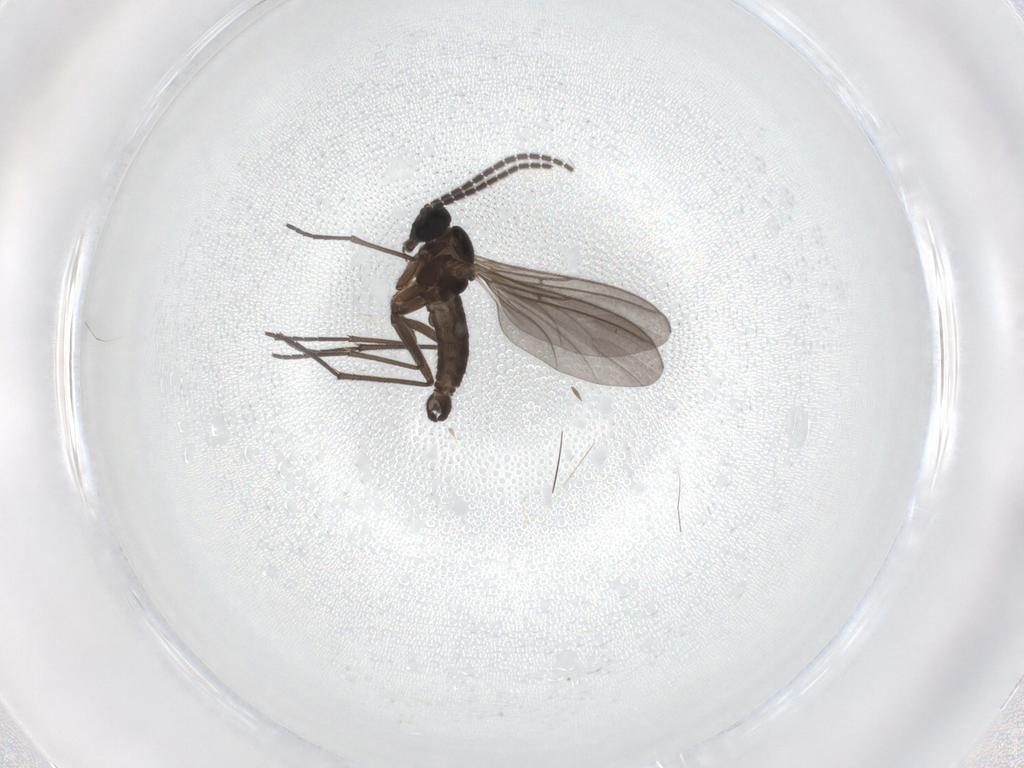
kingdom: Animalia
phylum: Arthropoda
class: Insecta
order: Diptera
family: Sciaridae
